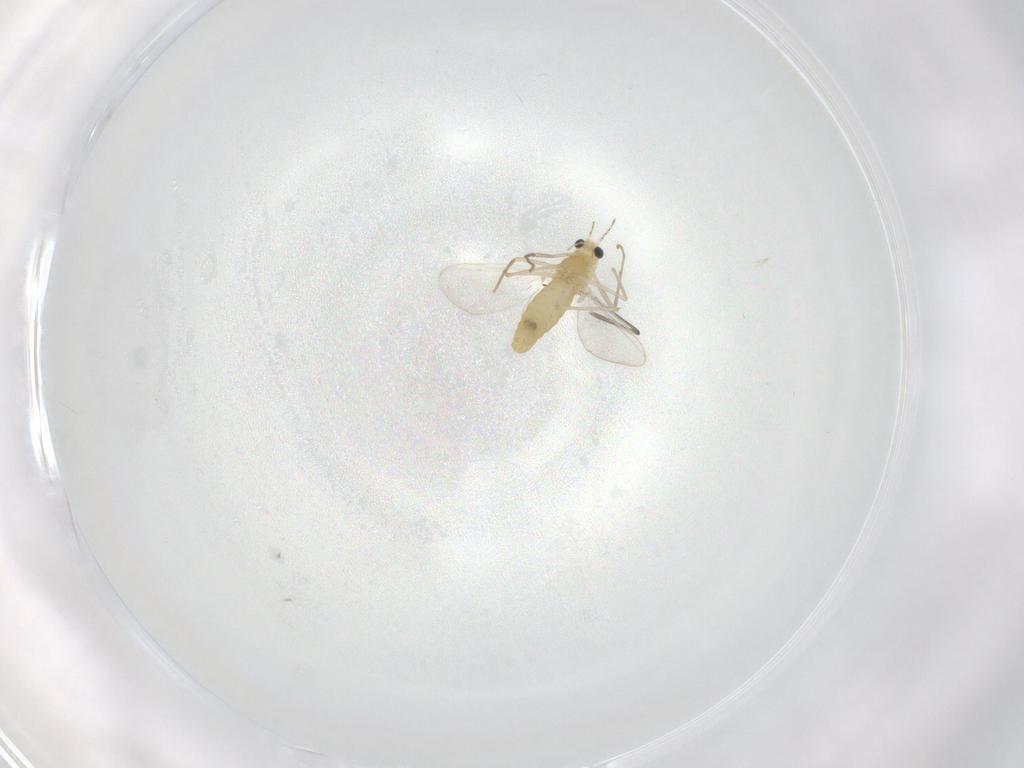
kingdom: Animalia
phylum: Arthropoda
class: Insecta
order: Diptera
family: Chironomidae
